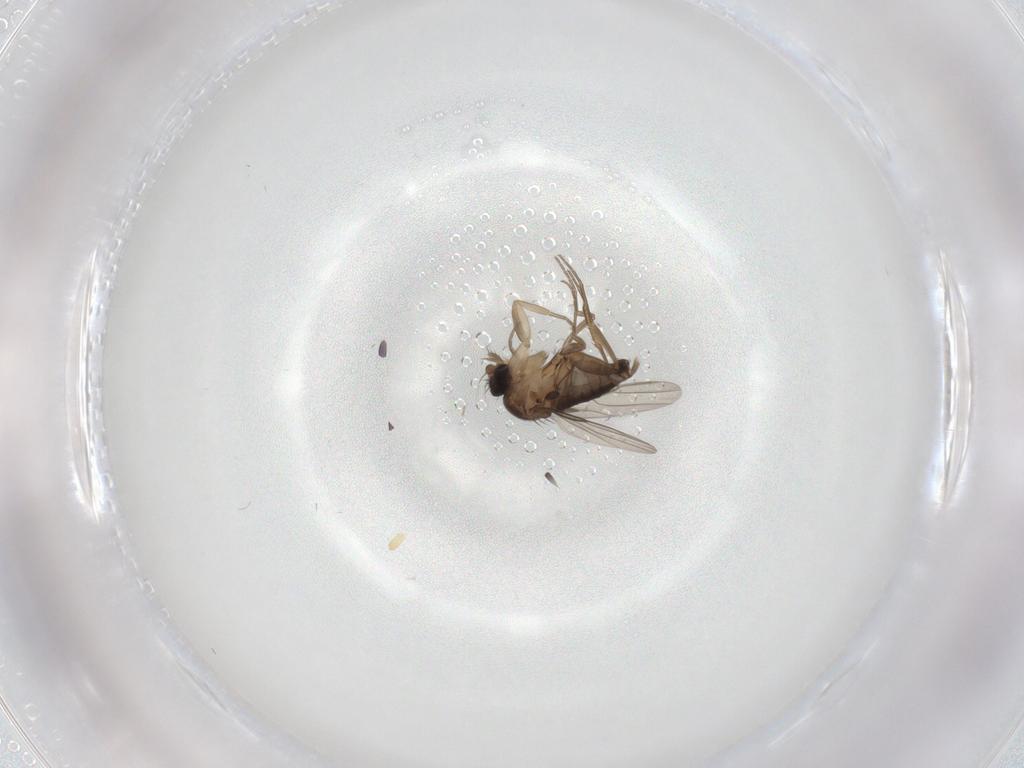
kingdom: Animalia
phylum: Arthropoda
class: Insecta
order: Diptera
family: Phoridae
